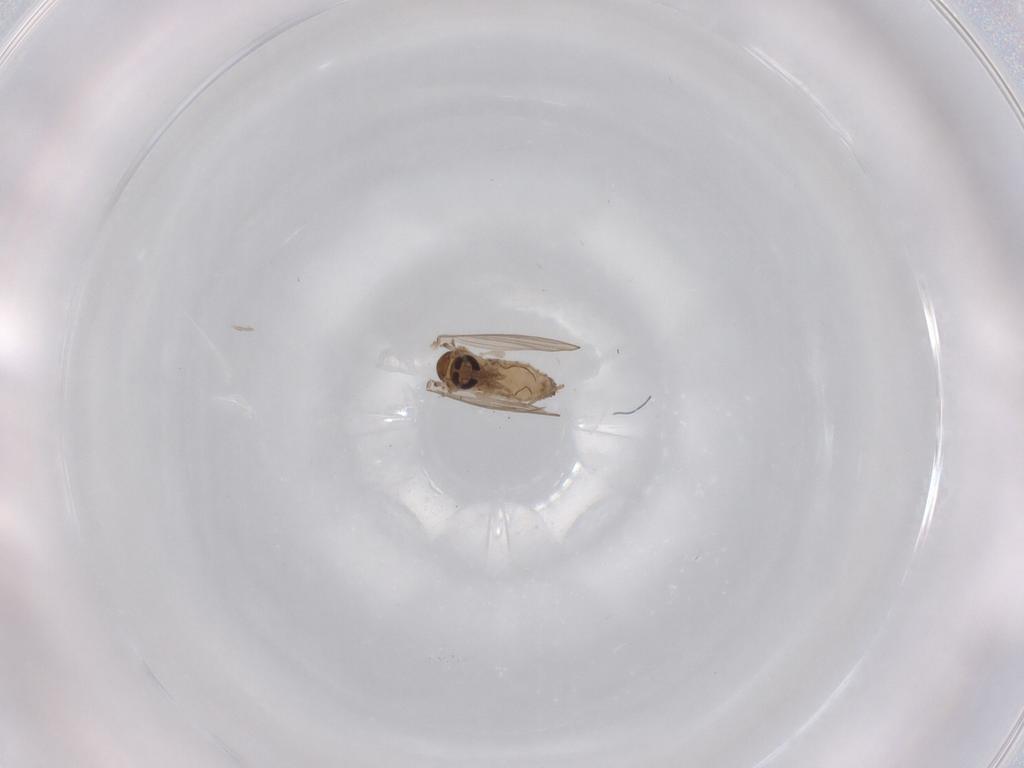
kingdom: Animalia
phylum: Arthropoda
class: Insecta
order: Diptera
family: Psychodidae
